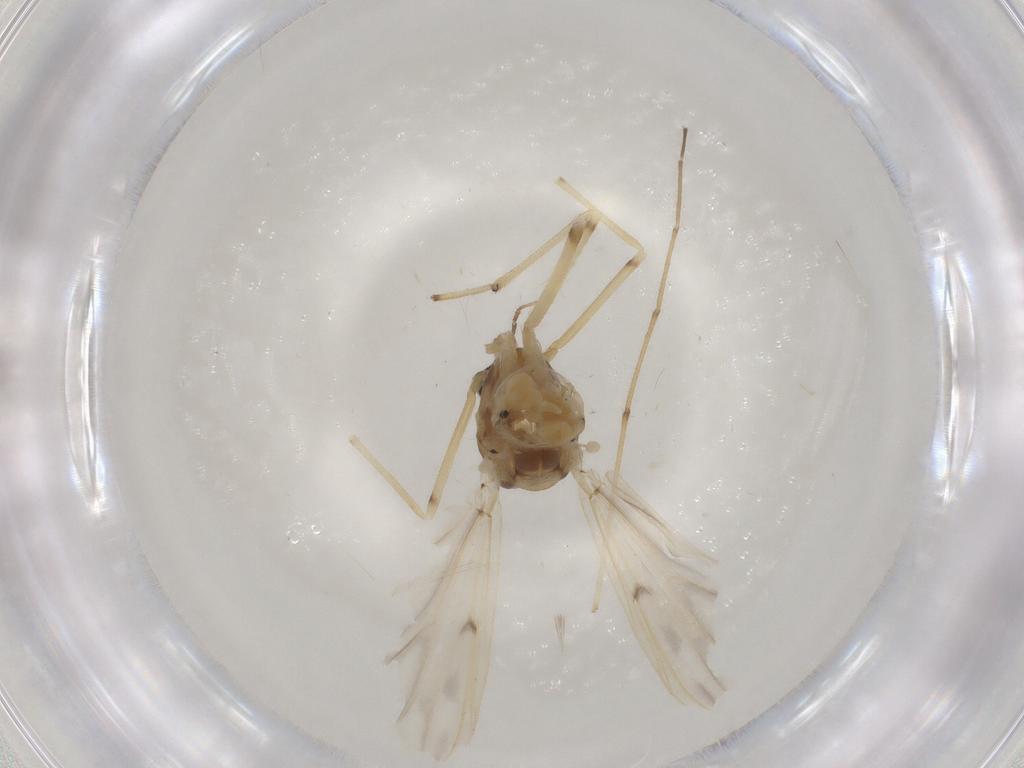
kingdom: Animalia
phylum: Arthropoda
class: Insecta
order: Diptera
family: Chironomidae
